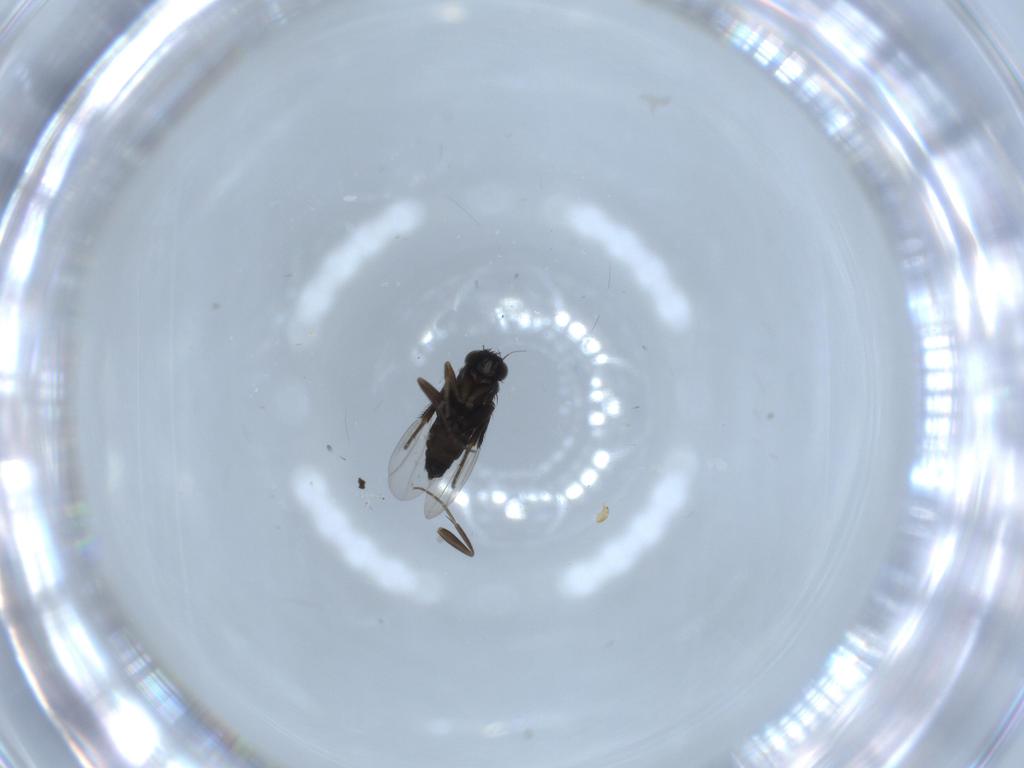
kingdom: Animalia
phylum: Arthropoda
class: Insecta
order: Diptera
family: Phoridae
